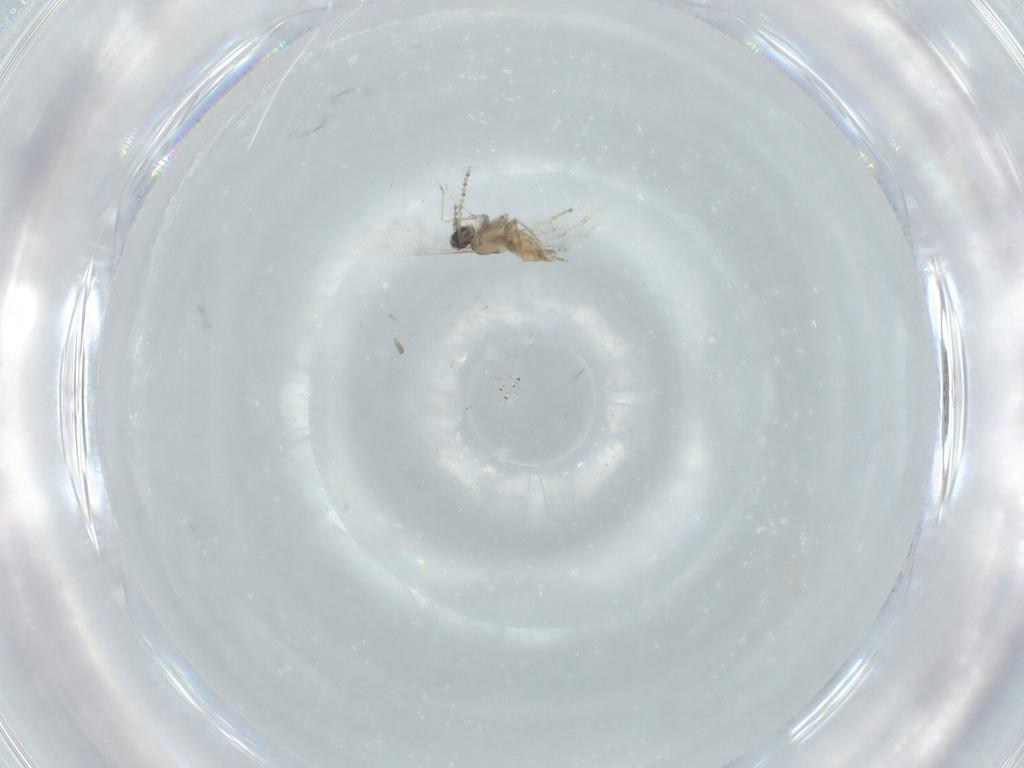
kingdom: Animalia
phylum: Arthropoda
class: Insecta
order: Diptera
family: Cecidomyiidae
